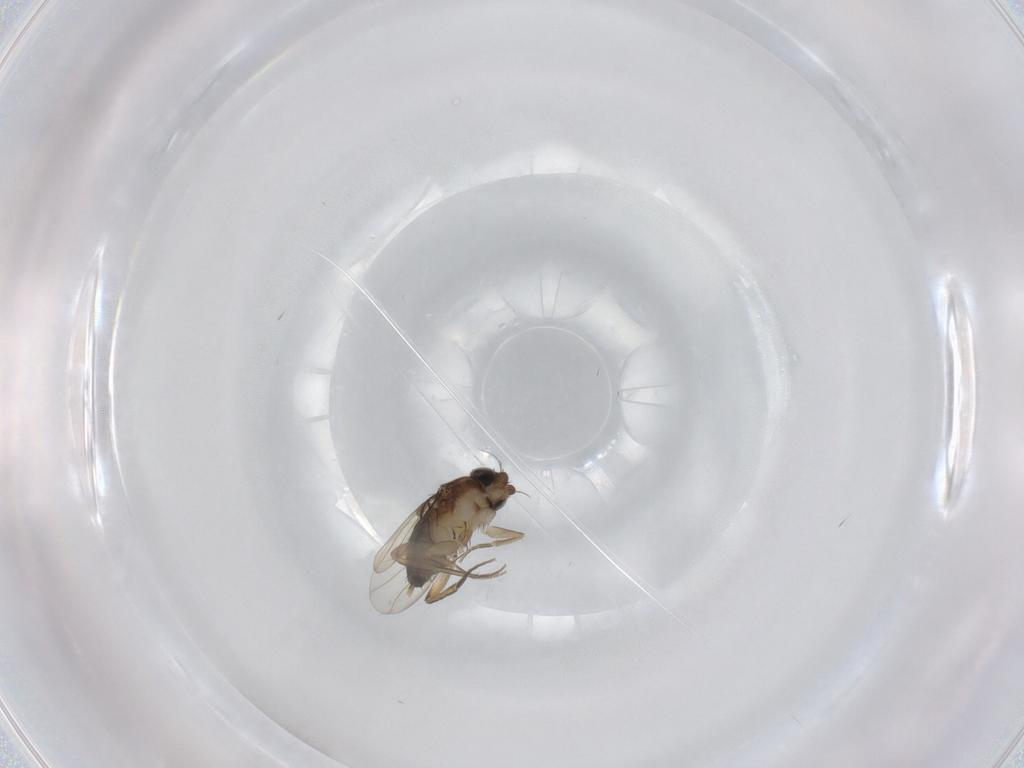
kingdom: Animalia
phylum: Arthropoda
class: Insecta
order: Diptera
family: Phoridae
